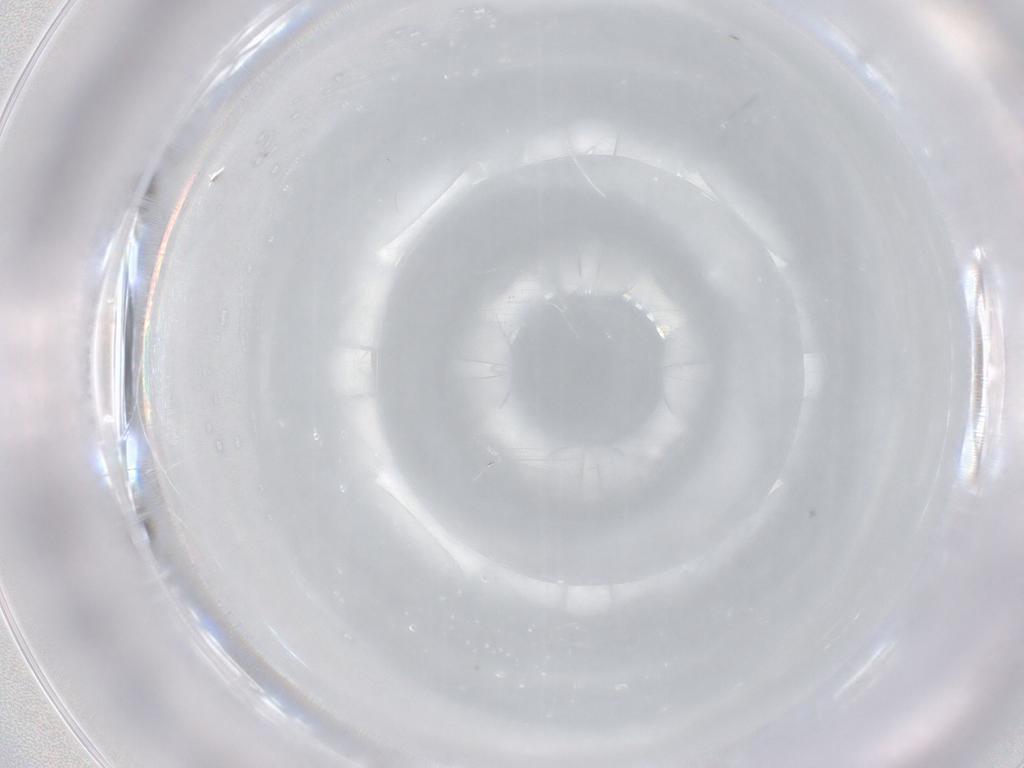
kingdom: Animalia
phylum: Arthropoda
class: Insecta
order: Diptera
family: Cecidomyiidae
